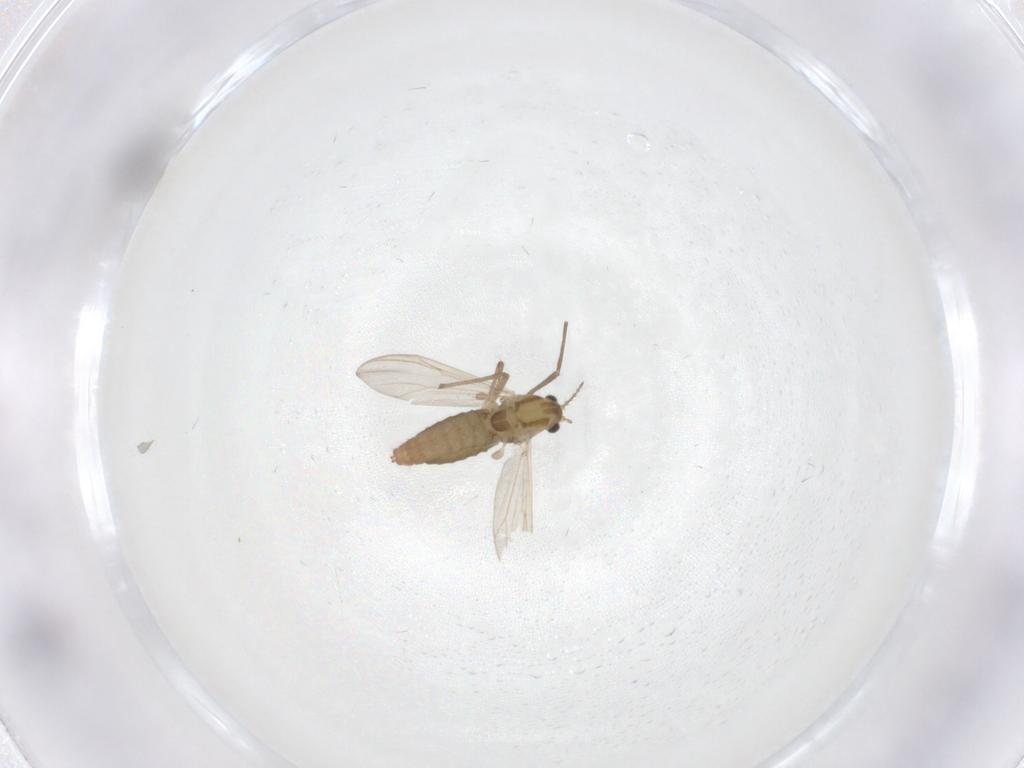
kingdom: Animalia
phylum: Arthropoda
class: Insecta
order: Diptera
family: Chironomidae
